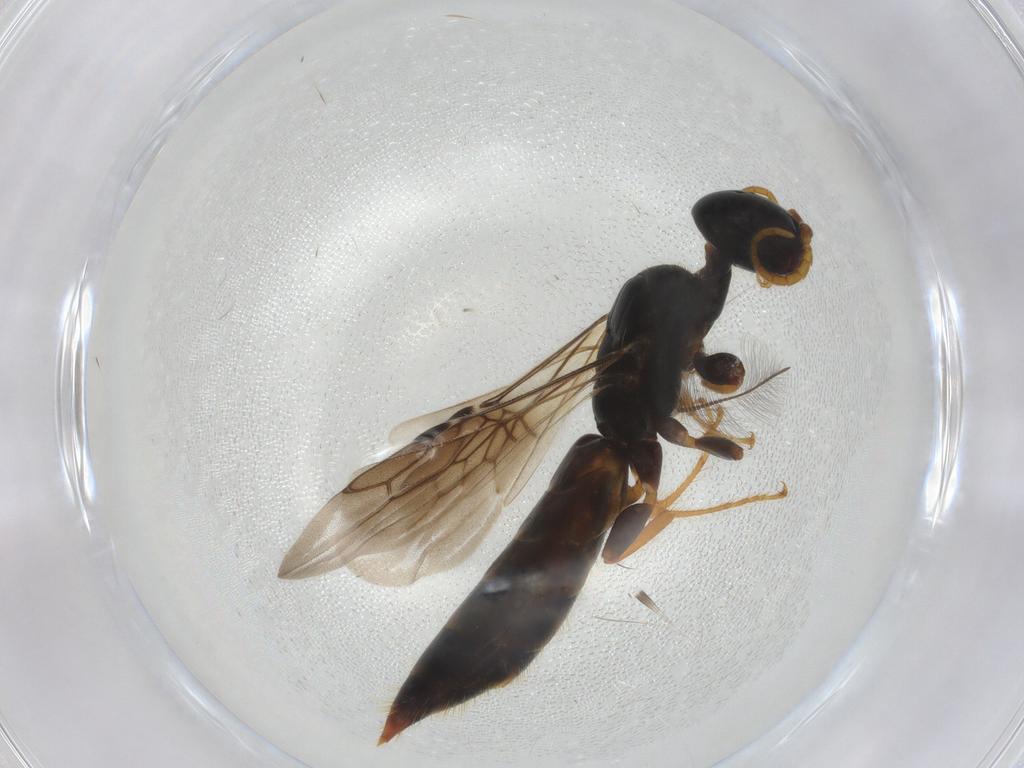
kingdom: Animalia
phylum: Arthropoda
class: Insecta
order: Hymenoptera
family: Scolebythidae
